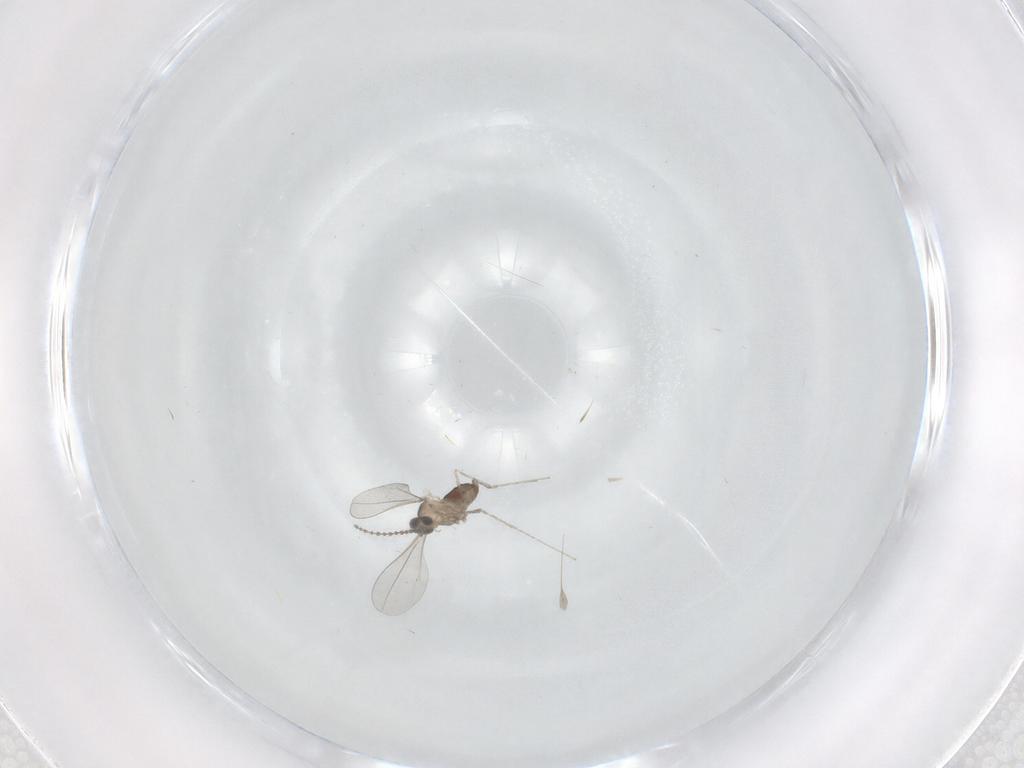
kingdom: Animalia
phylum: Arthropoda
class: Insecta
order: Diptera
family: Cecidomyiidae
